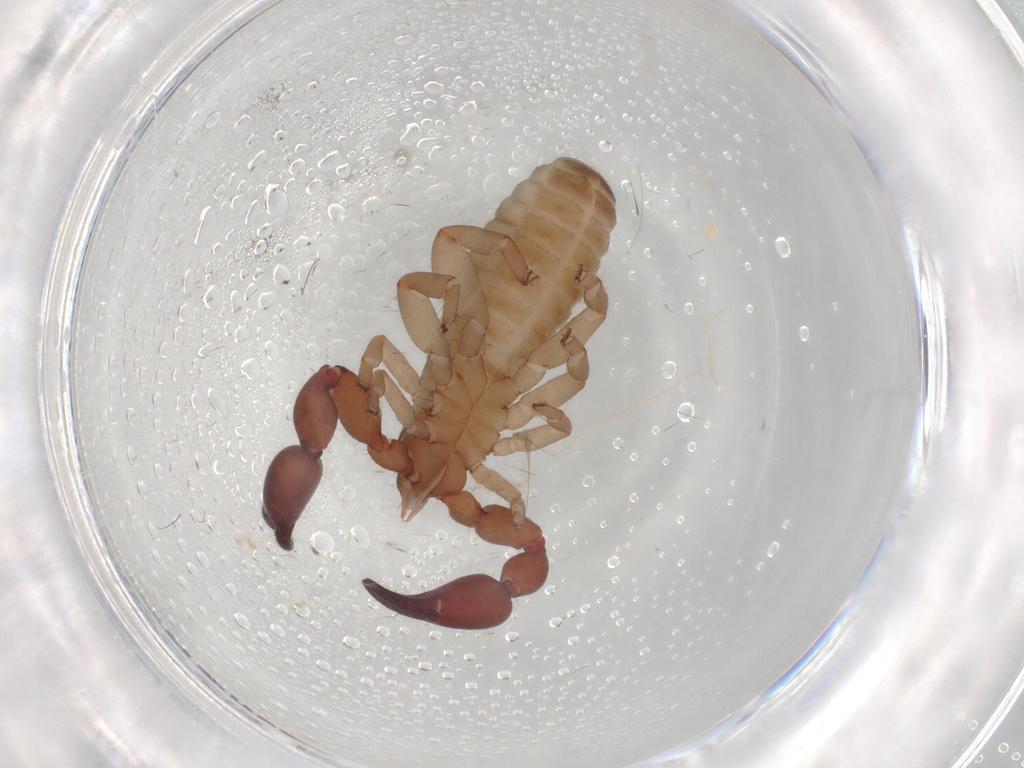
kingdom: Animalia
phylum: Arthropoda
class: Arachnida
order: Pseudoscorpiones
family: Atemnidae
